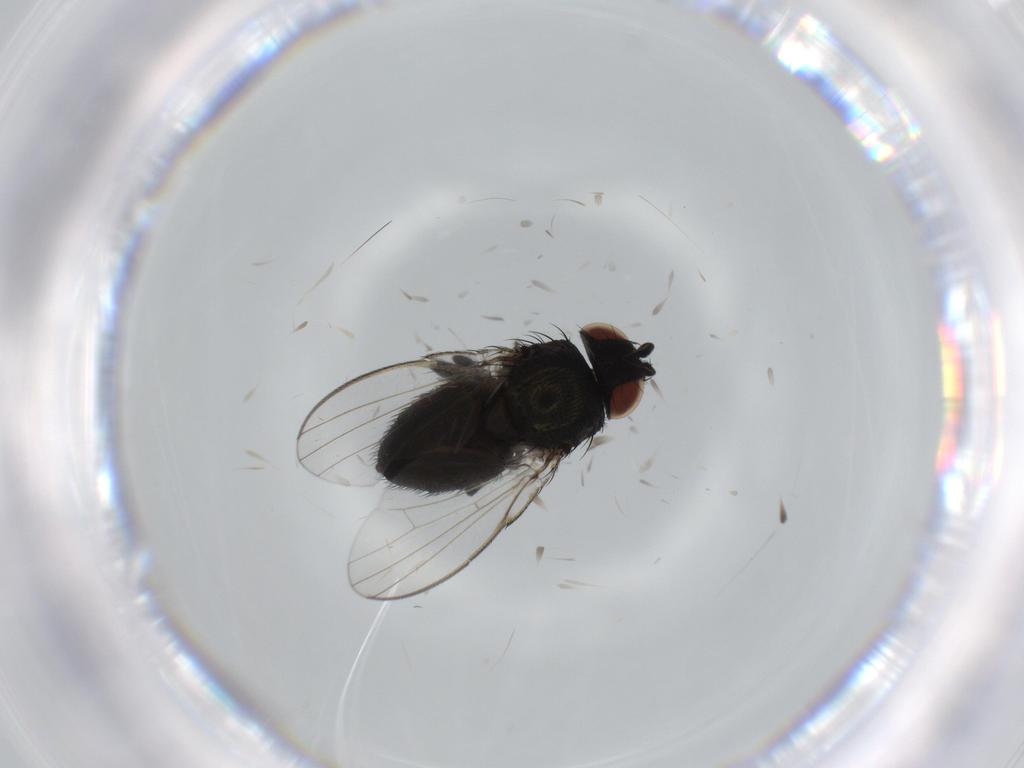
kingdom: Animalia
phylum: Arthropoda
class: Insecta
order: Diptera
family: Milichiidae
